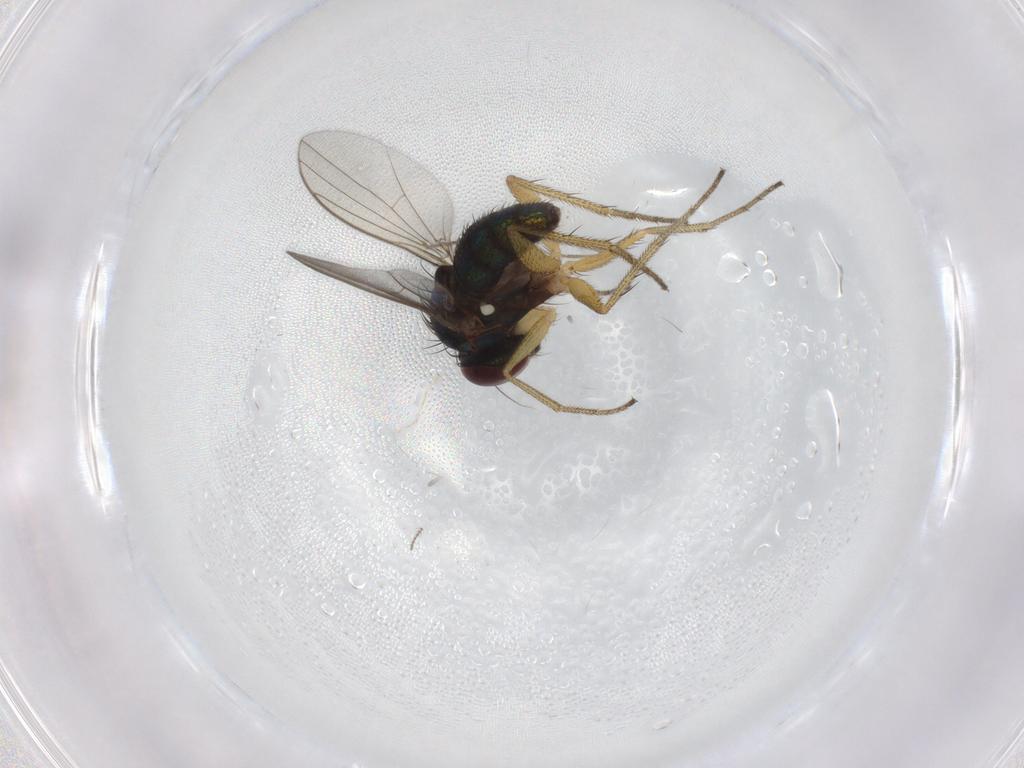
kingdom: Animalia
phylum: Arthropoda
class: Insecta
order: Diptera
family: Chironomidae
